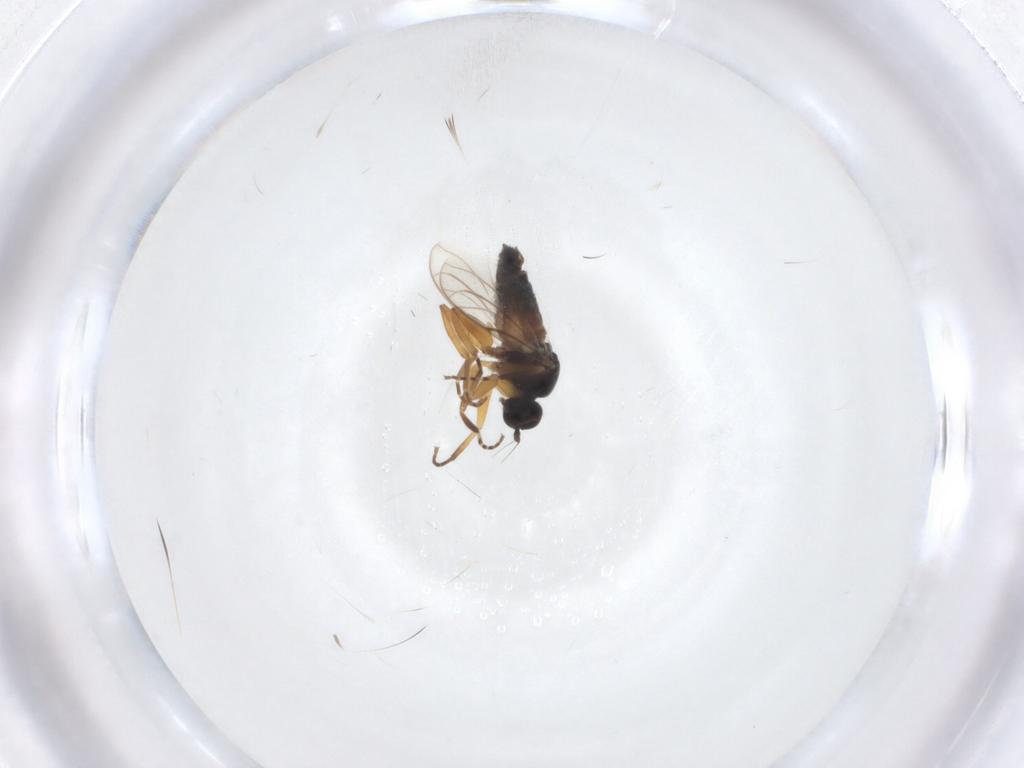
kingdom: Animalia
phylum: Arthropoda
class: Insecta
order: Diptera
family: Hybotidae
